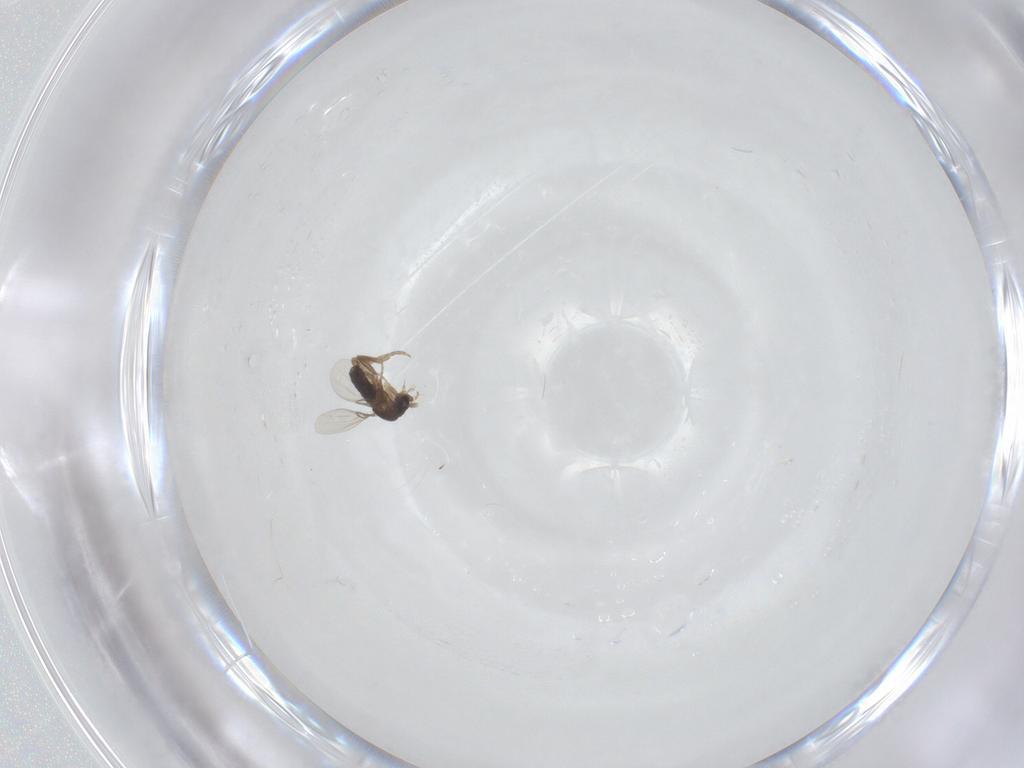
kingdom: Animalia
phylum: Arthropoda
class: Insecta
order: Diptera
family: Phoridae
